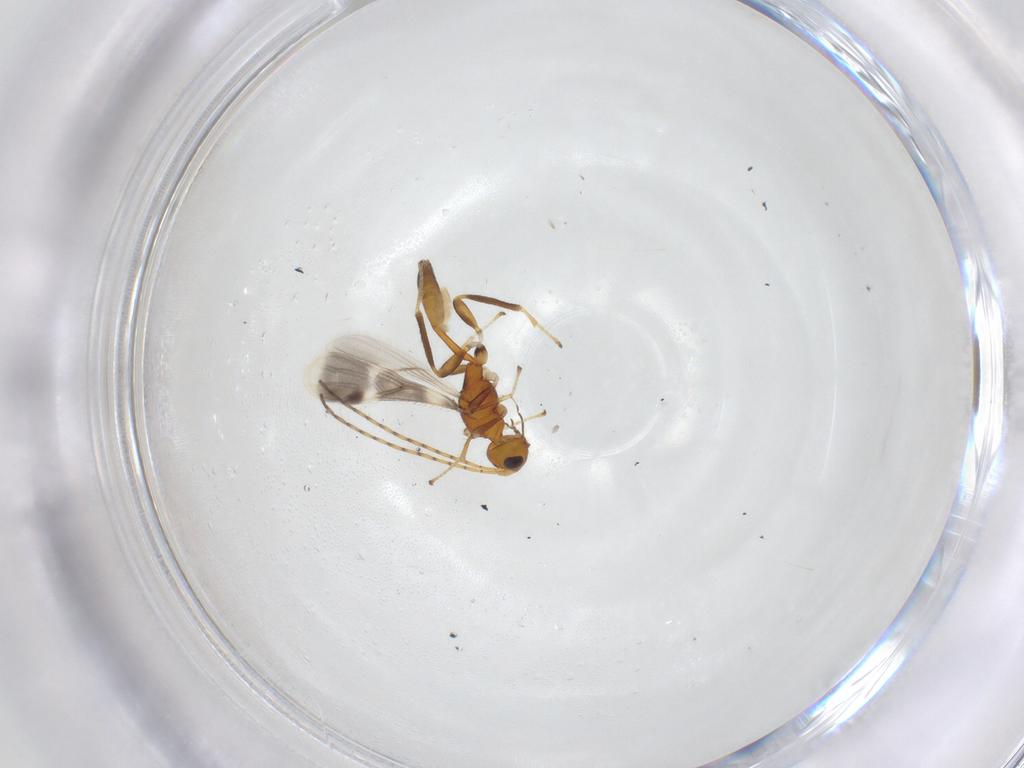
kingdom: Animalia
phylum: Arthropoda
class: Insecta
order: Hymenoptera
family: Braconidae
